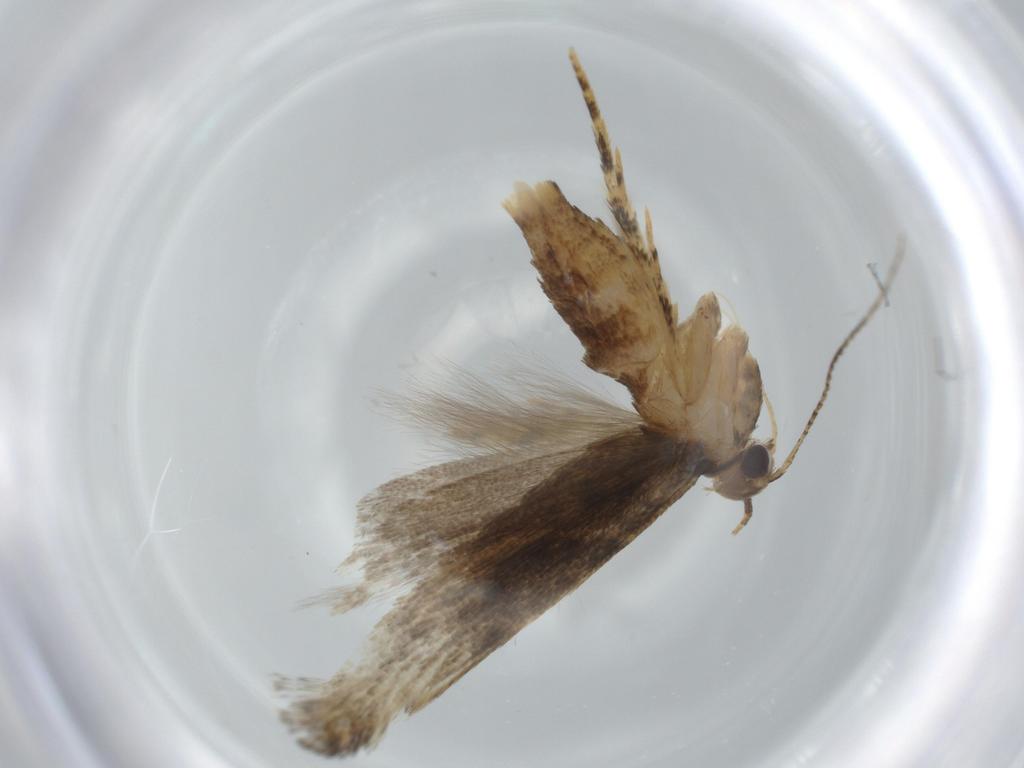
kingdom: Animalia
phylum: Arthropoda
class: Insecta
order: Lepidoptera
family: Gelechiidae
